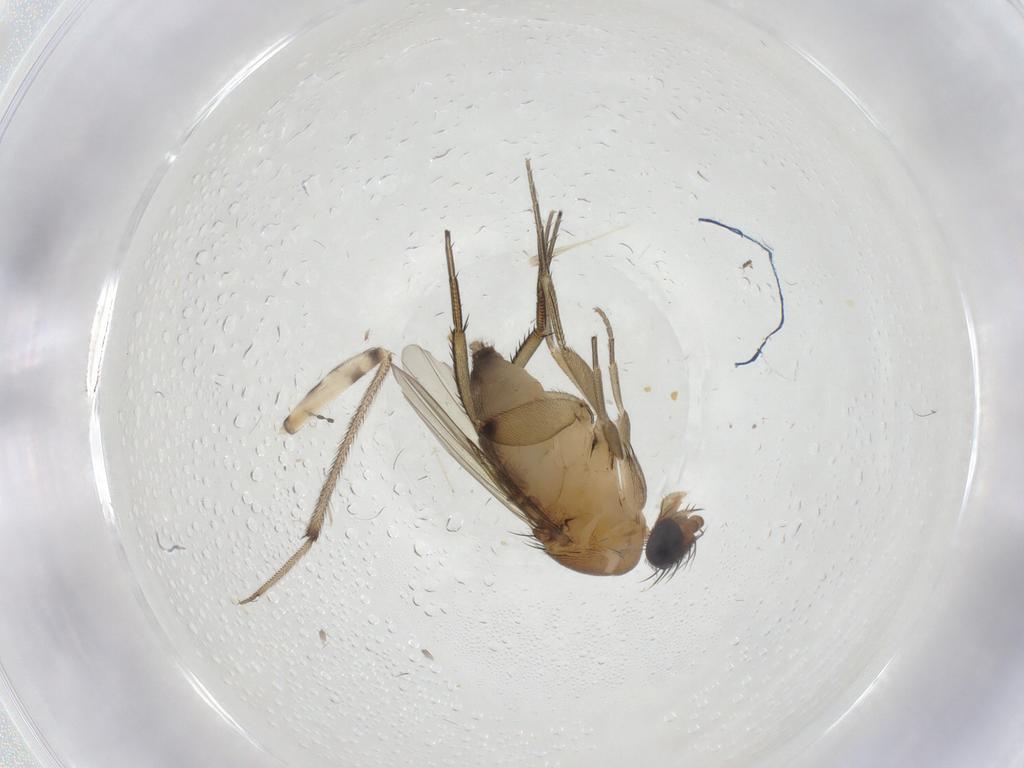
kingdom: Animalia
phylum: Arthropoda
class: Insecta
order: Diptera
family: Phoridae
